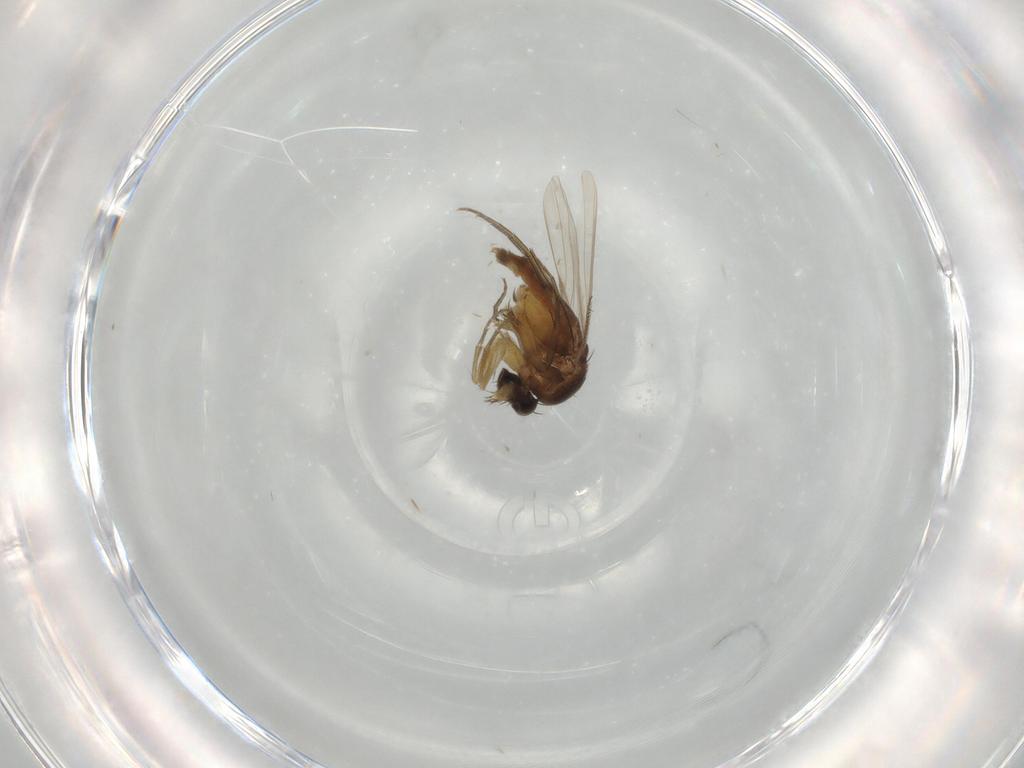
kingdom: Animalia
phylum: Arthropoda
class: Insecta
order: Diptera
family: Phoridae
